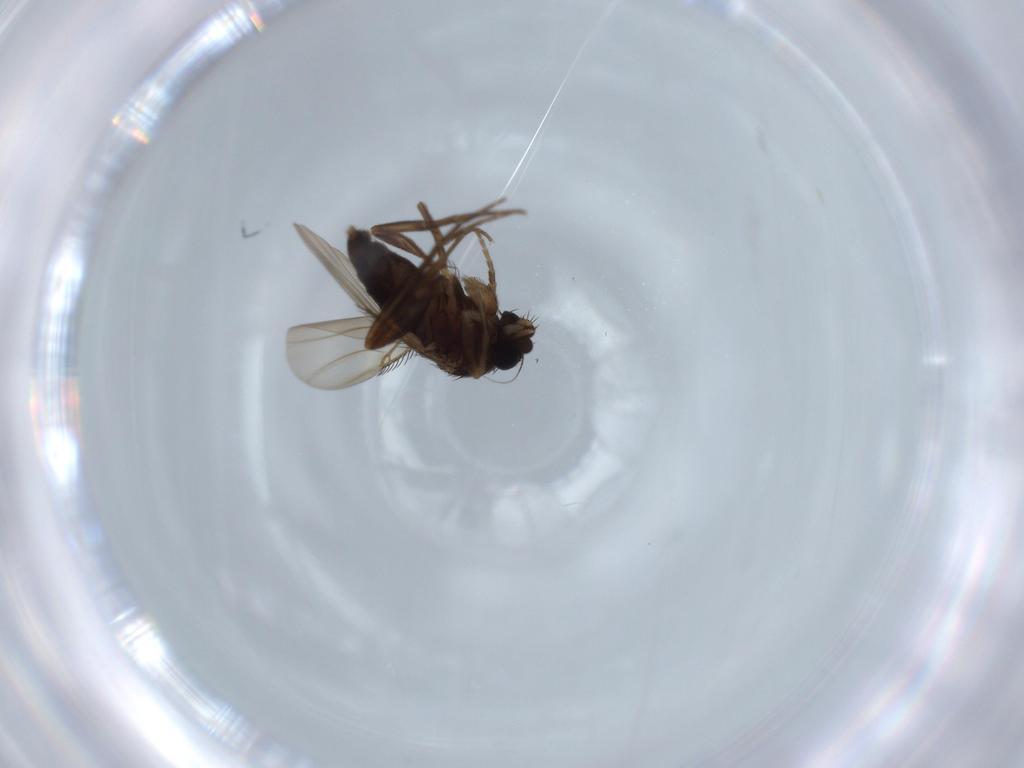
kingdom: Animalia
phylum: Arthropoda
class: Insecta
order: Diptera
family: Phoridae
